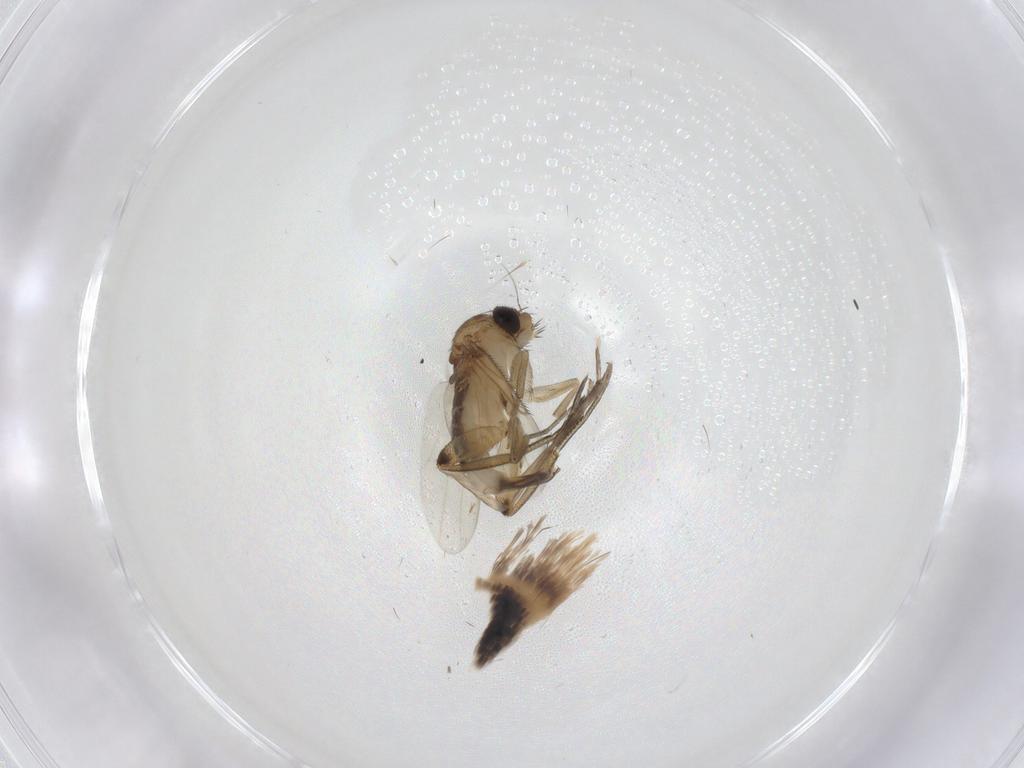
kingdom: Animalia
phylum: Arthropoda
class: Insecta
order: Diptera
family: Phoridae
